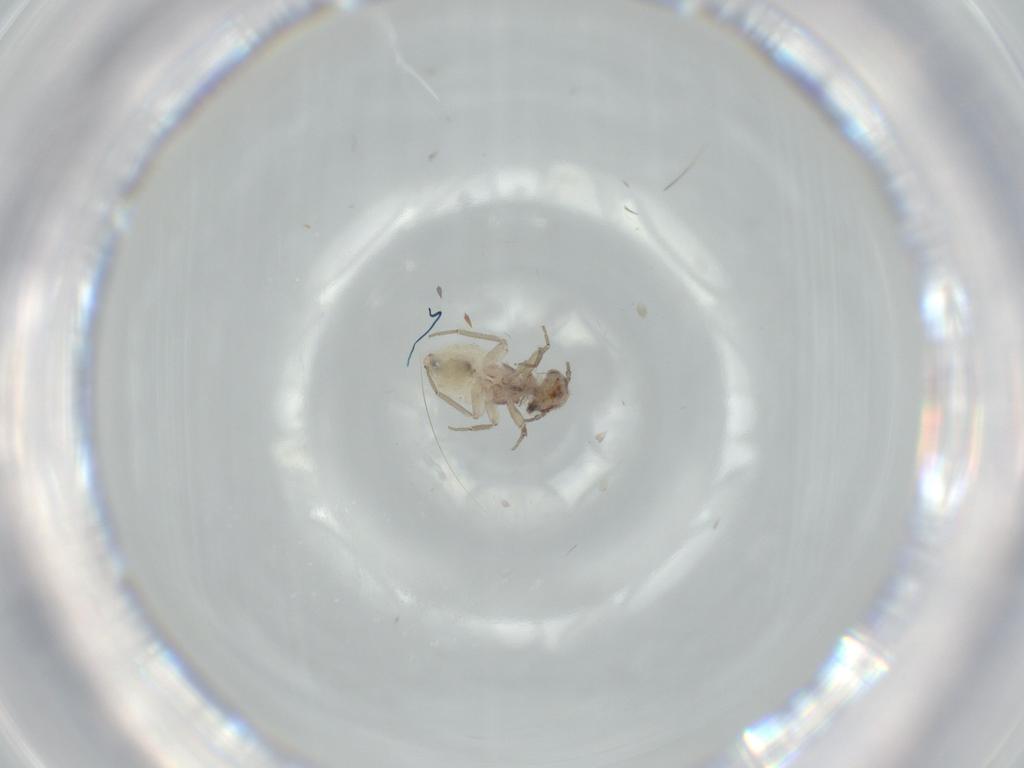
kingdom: Animalia
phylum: Arthropoda
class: Insecta
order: Psocodea
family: Lepidopsocidae
